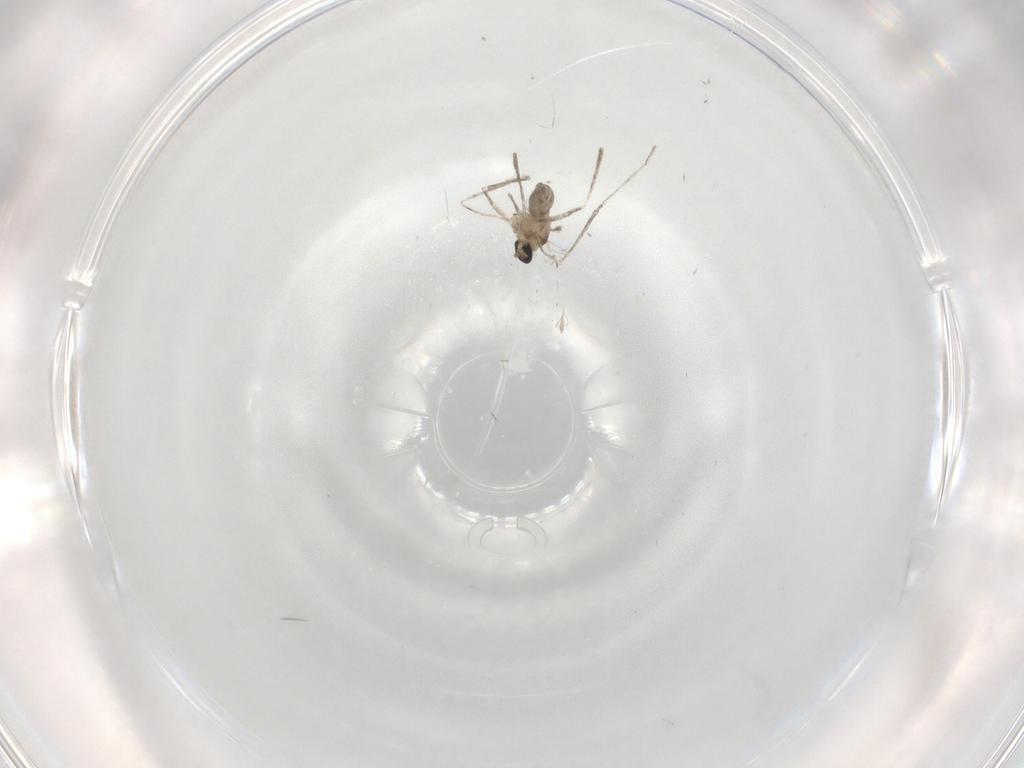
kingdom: Animalia
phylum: Arthropoda
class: Insecta
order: Diptera
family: Cecidomyiidae
